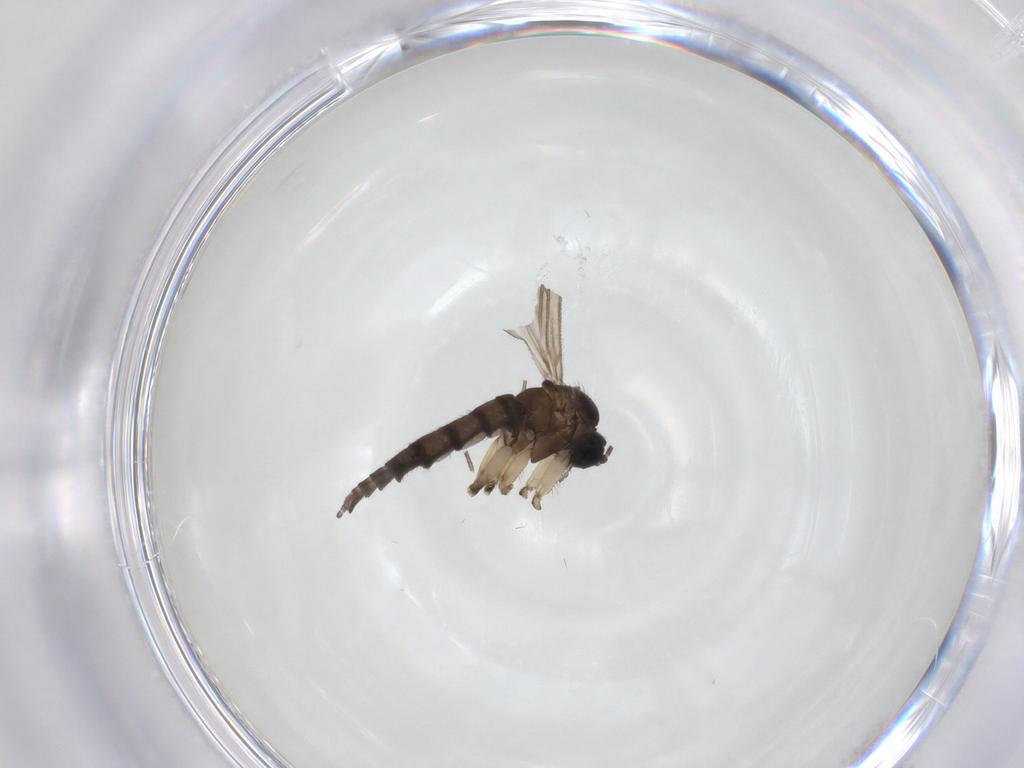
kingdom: Animalia
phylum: Arthropoda
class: Insecta
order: Diptera
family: Sciaridae
